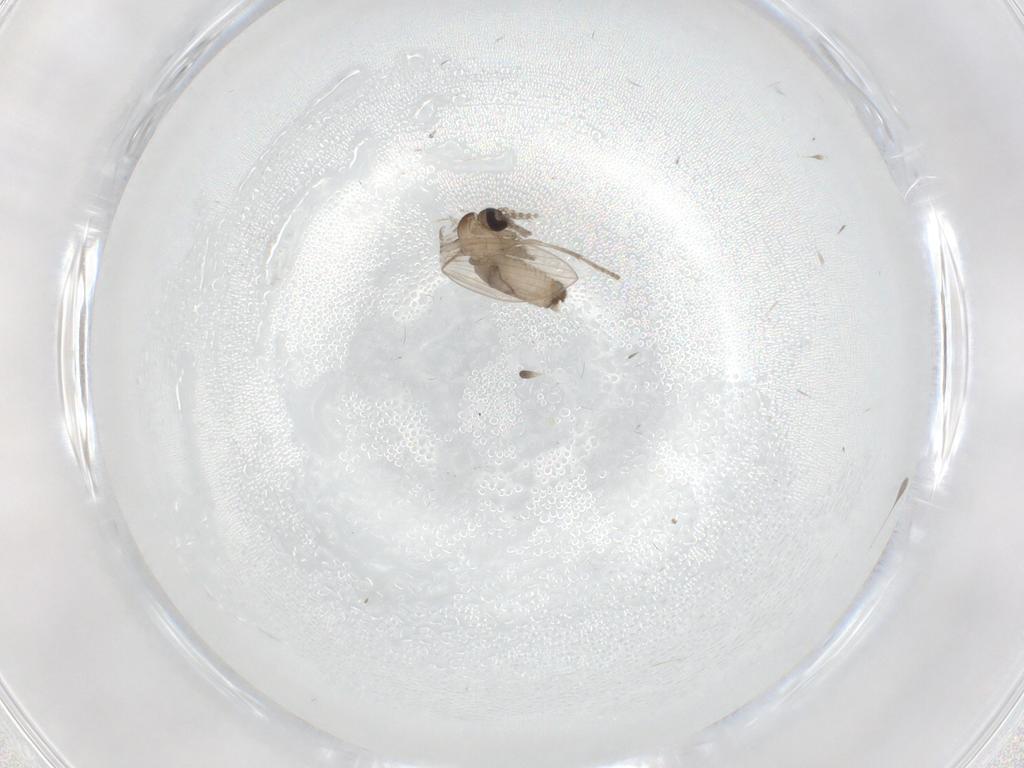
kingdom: Animalia
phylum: Arthropoda
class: Insecta
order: Diptera
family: Psychodidae
